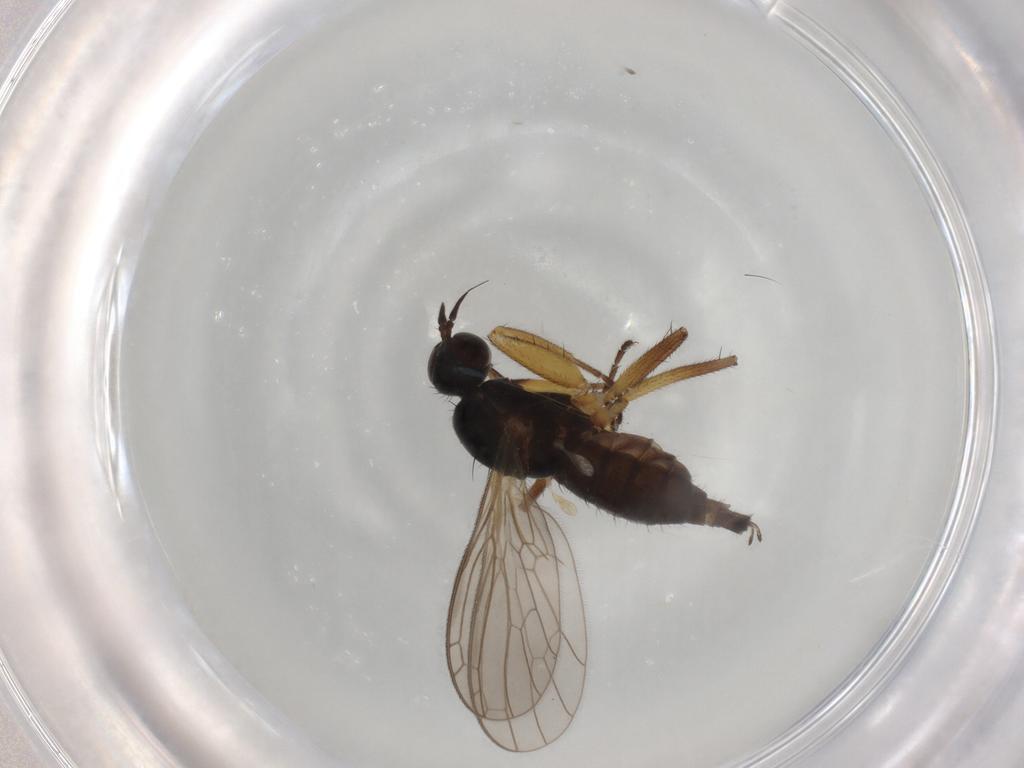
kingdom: Animalia
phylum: Arthropoda
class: Insecta
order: Diptera
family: Empididae
